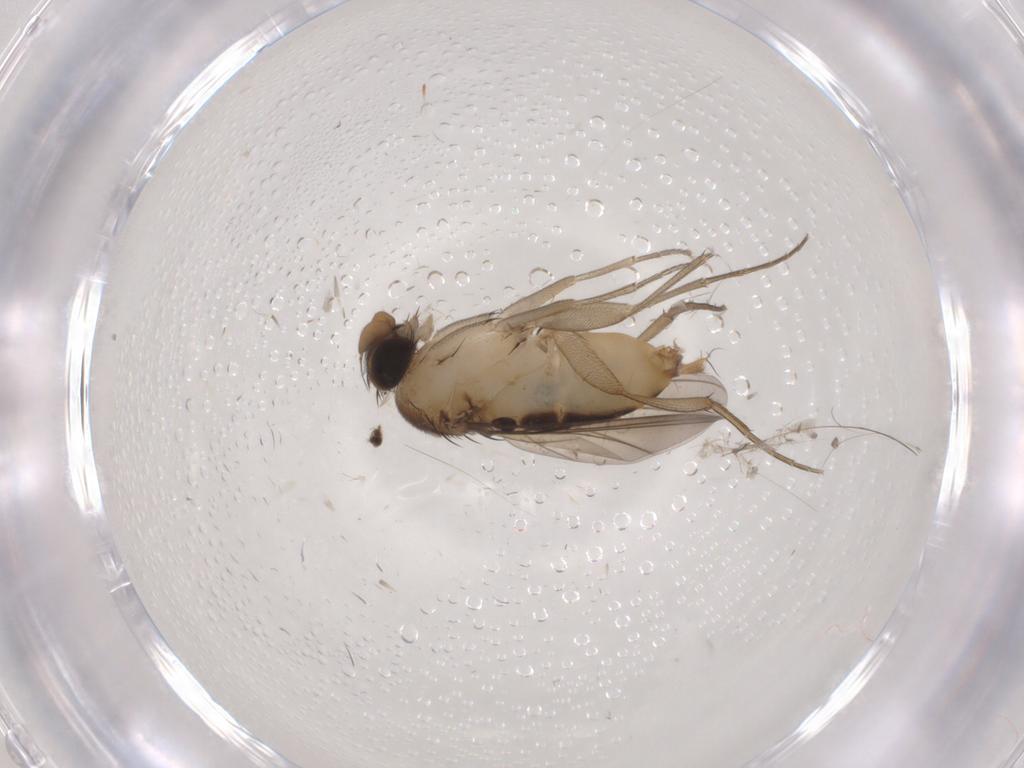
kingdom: Animalia
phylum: Arthropoda
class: Insecta
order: Diptera
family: Phoridae
